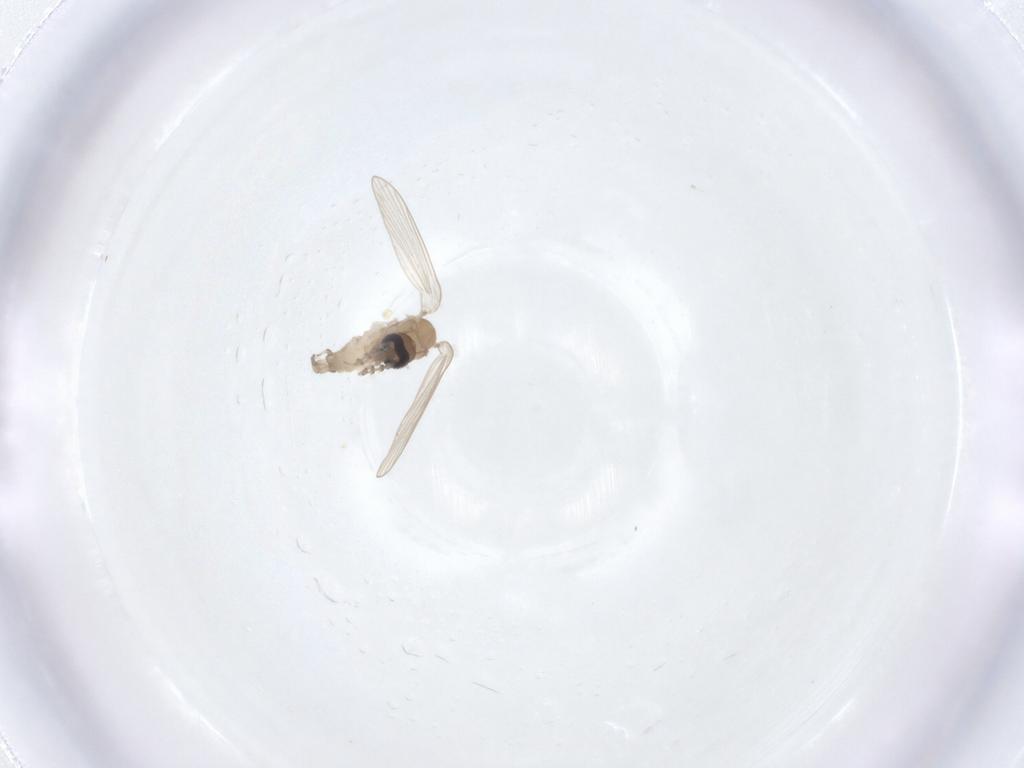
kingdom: Animalia
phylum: Arthropoda
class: Insecta
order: Diptera
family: Psychodidae
